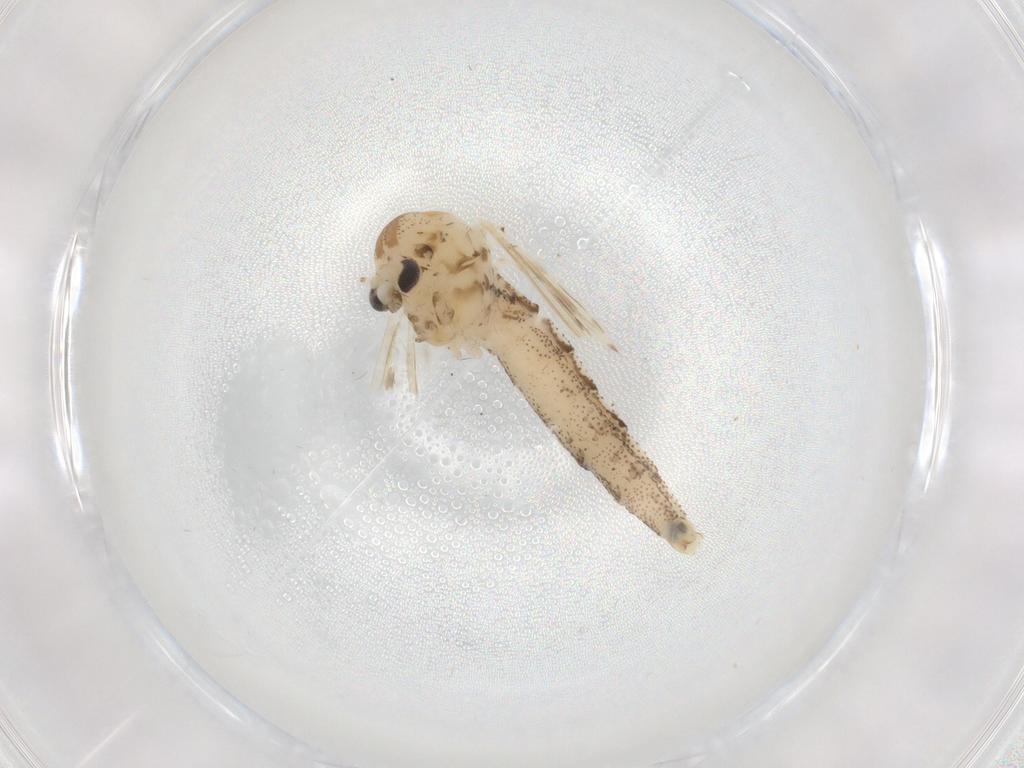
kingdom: Animalia
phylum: Arthropoda
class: Insecta
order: Diptera
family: Chaoboridae
